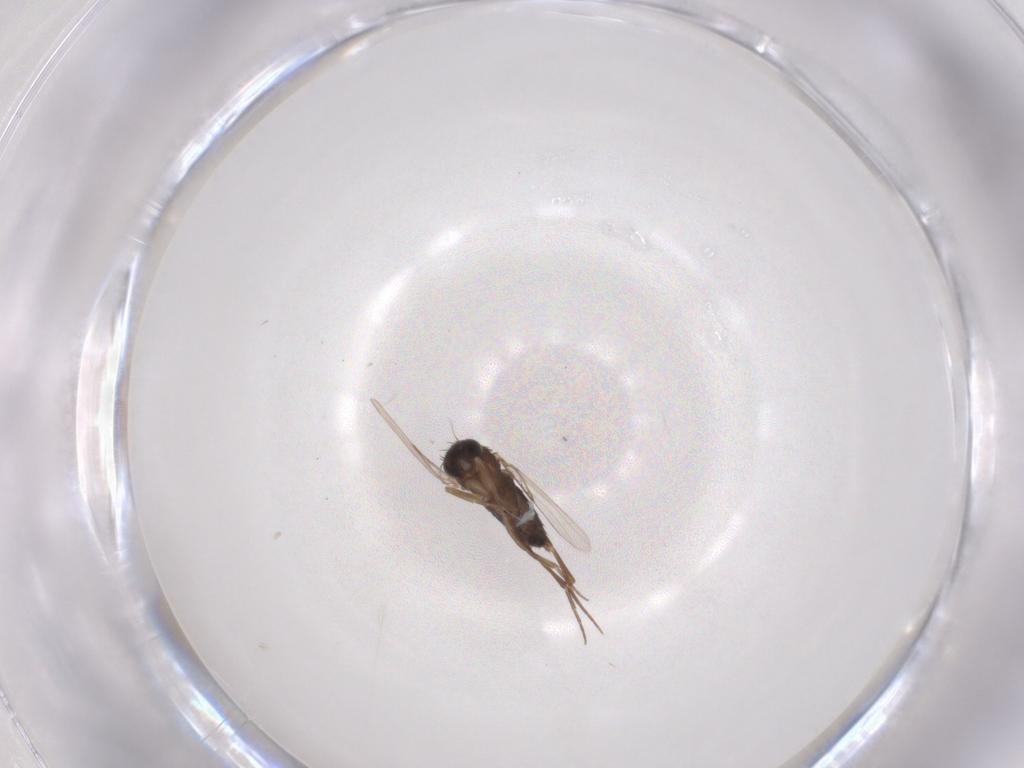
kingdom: Animalia
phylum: Arthropoda
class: Insecta
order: Diptera
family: Phoridae
